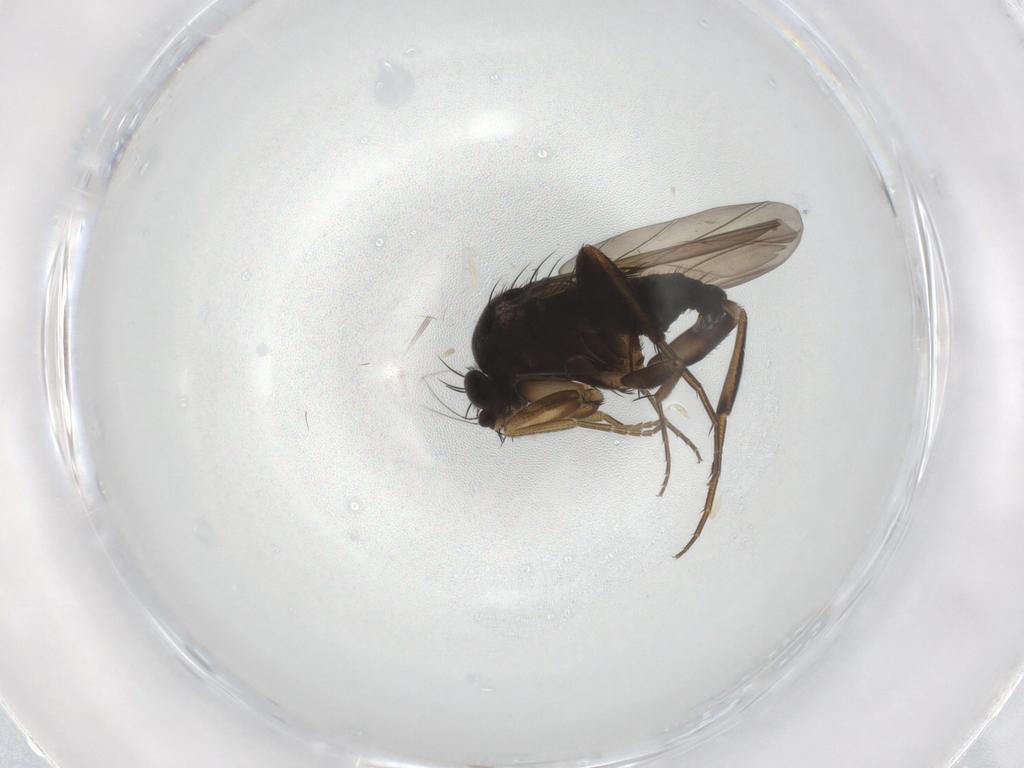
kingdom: Animalia
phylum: Arthropoda
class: Insecta
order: Diptera
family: Phoridae
